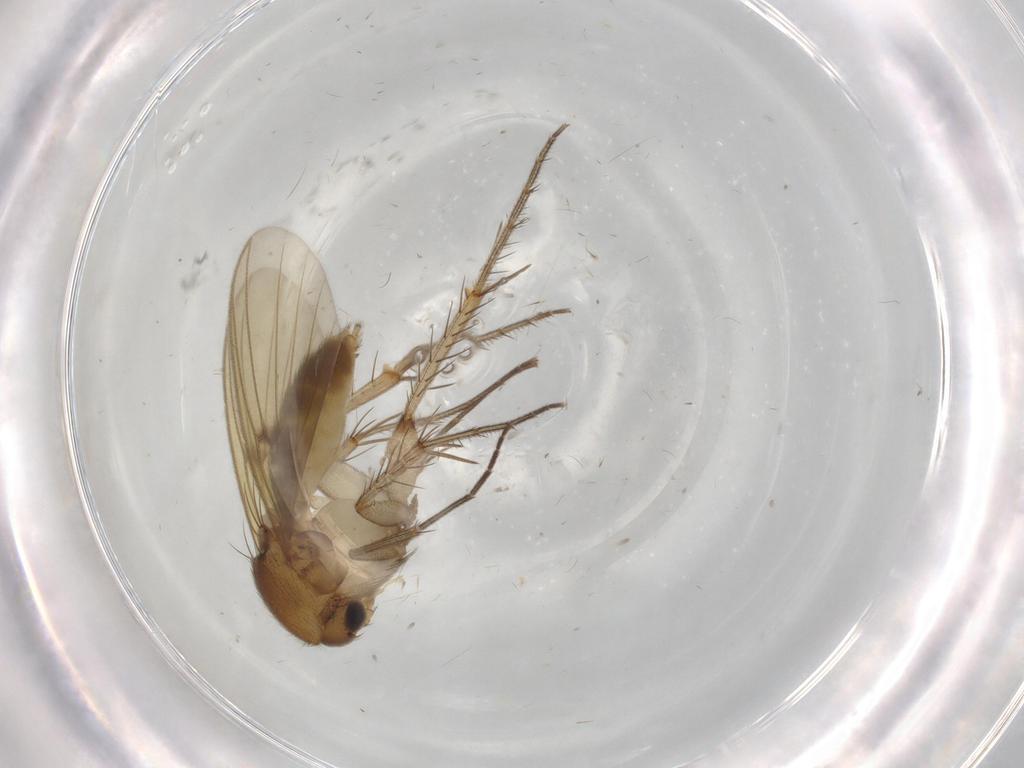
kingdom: Animalia
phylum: Arthropoda
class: Insecta
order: Diptera
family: Mycetophilidae
